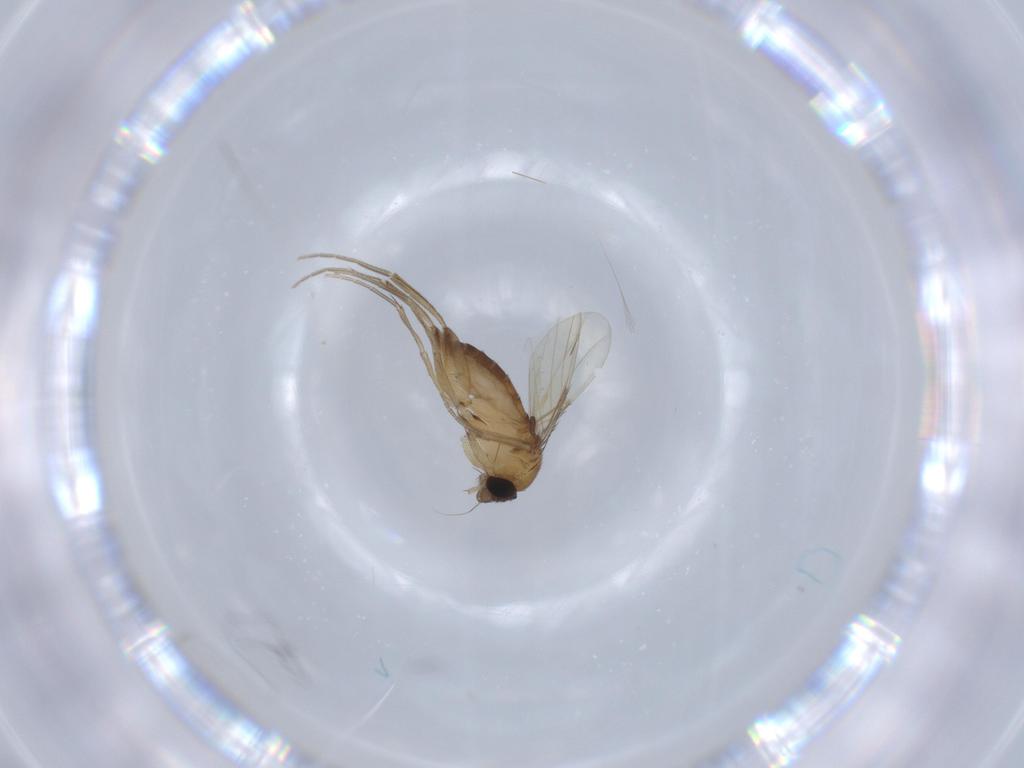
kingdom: Animalia
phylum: Arthropoda
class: Insecta
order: Diptera
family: Phoridae
